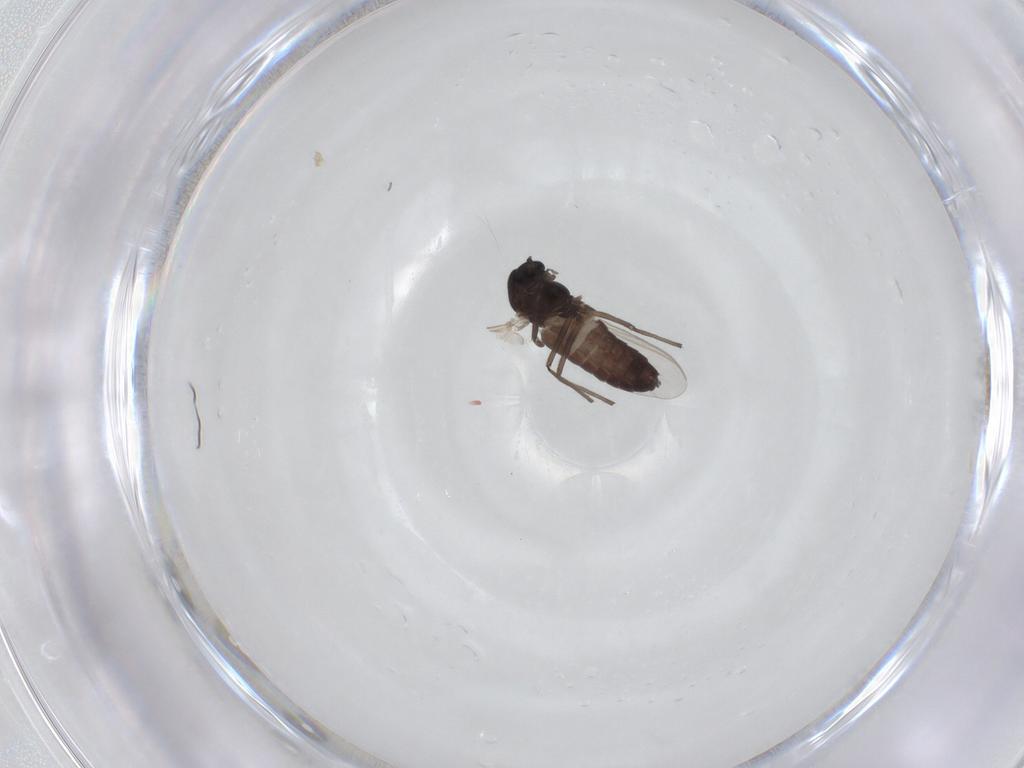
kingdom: Animalia
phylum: Arthropoda
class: Insecta
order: Diptera
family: Chironomidae
